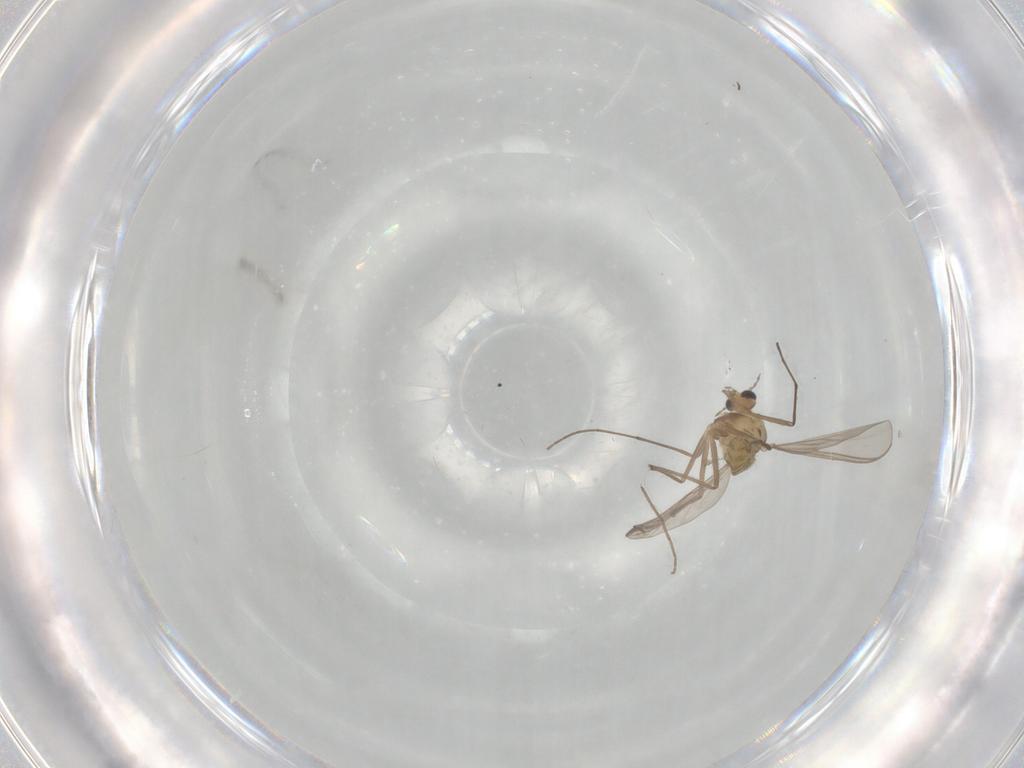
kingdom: Animalia
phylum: Arthropoda
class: Insecta
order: Diptera
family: Chironomidae
